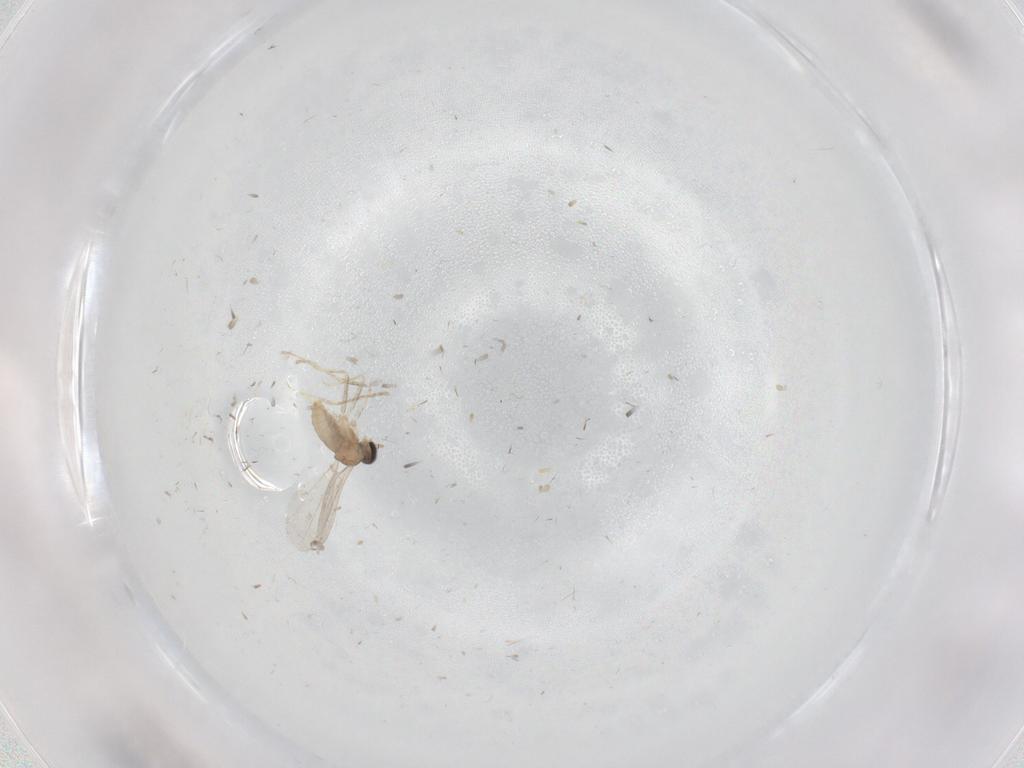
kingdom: Animalia
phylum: Arthropoda
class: Insecta
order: Diptera
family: Cecidomyiidae
